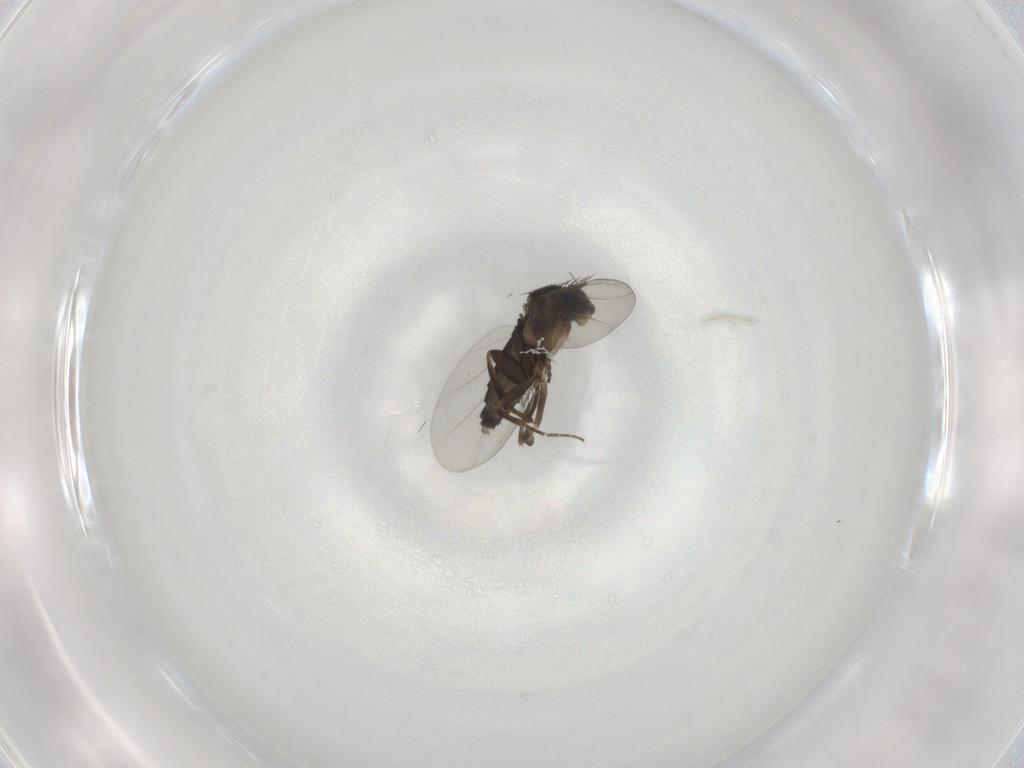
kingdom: Animalia
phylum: Arthropoda
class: Insecta
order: Diptera
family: Phoridae
